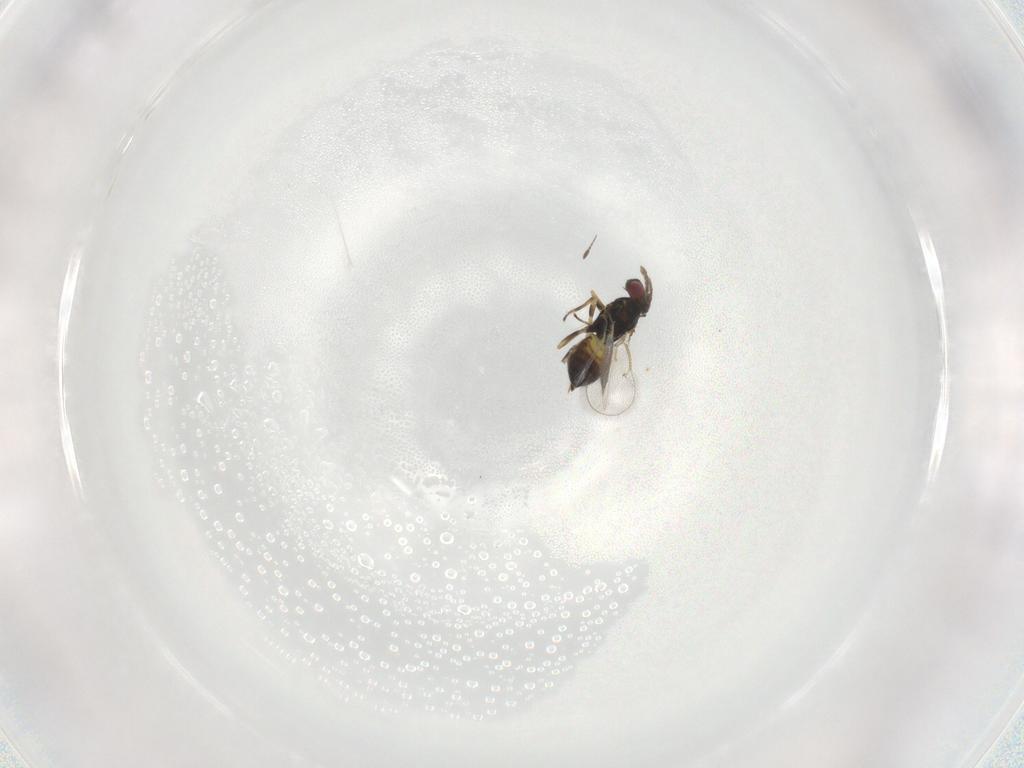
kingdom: Animalia
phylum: Arthropoda
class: Insecta
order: Hymenoptera
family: Eulophidae
